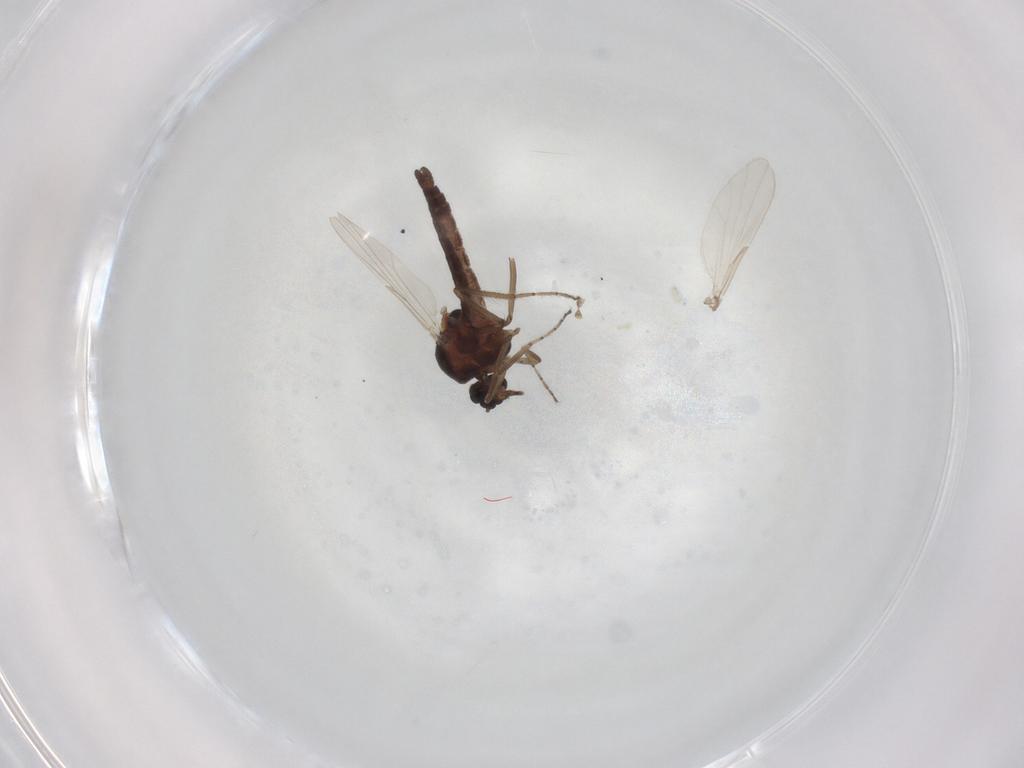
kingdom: Animalia
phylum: Arthropoda
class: Insecta
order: Diptera
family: Ceratopogonidae
